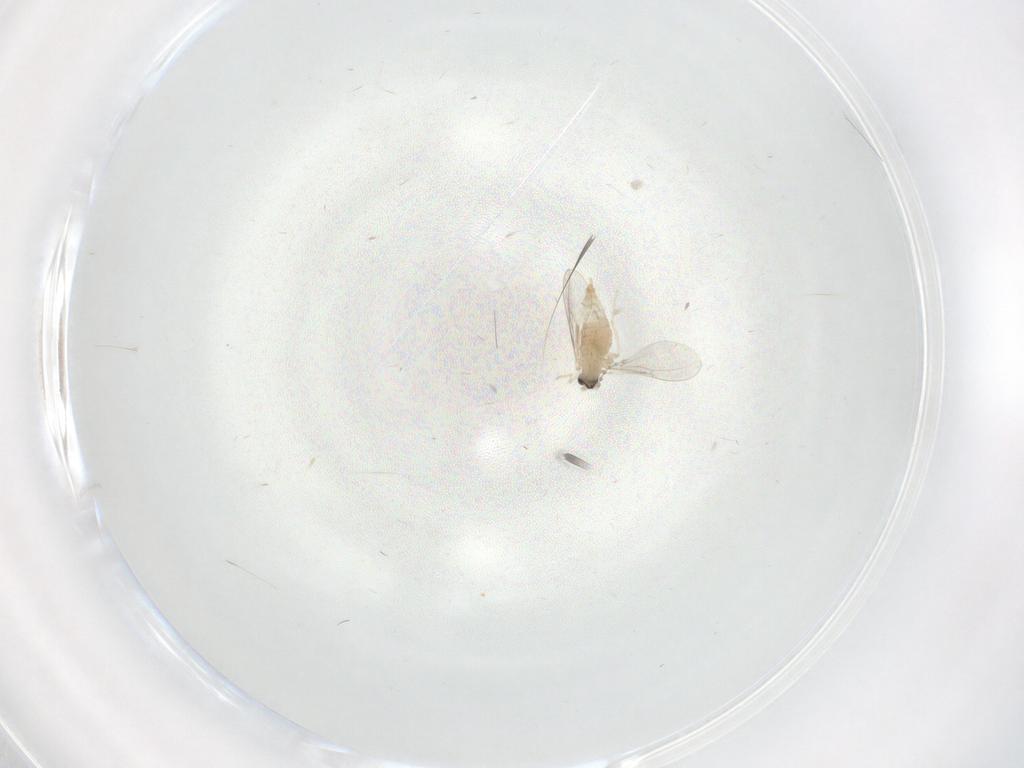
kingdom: Animalia
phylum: Arthropoda
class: Insecta
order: Diptera
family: Cecidomyiidae
